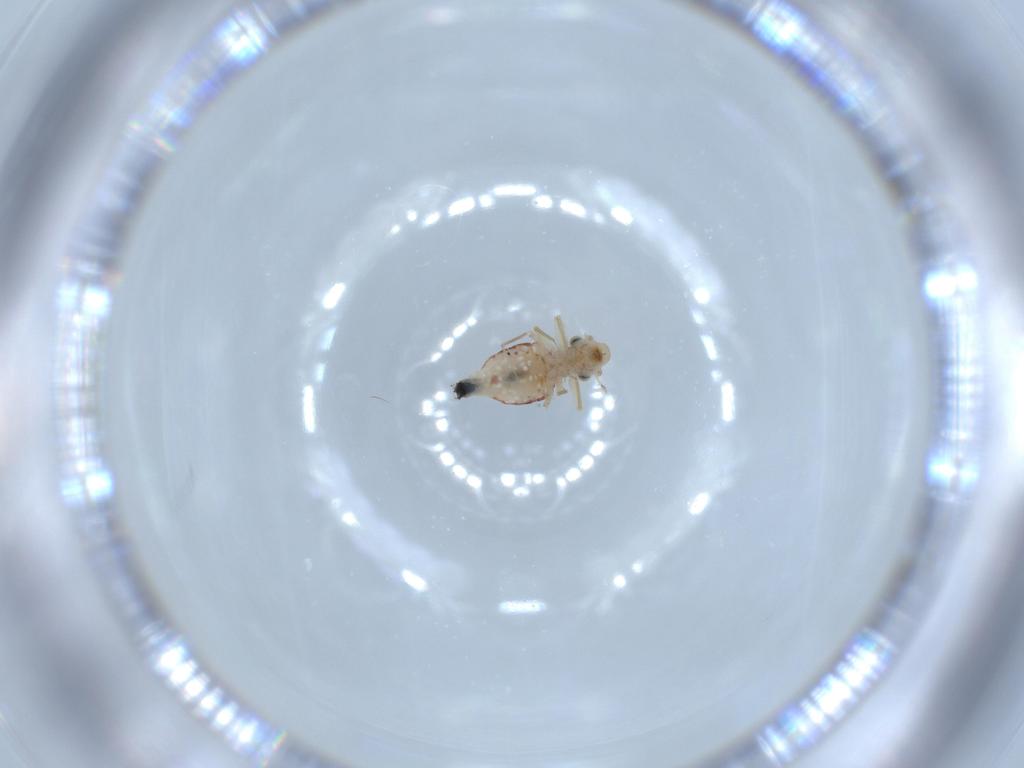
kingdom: Animalia
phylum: Arthropoda
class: Insecta
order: Psocodea
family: Lepidopsocidae
